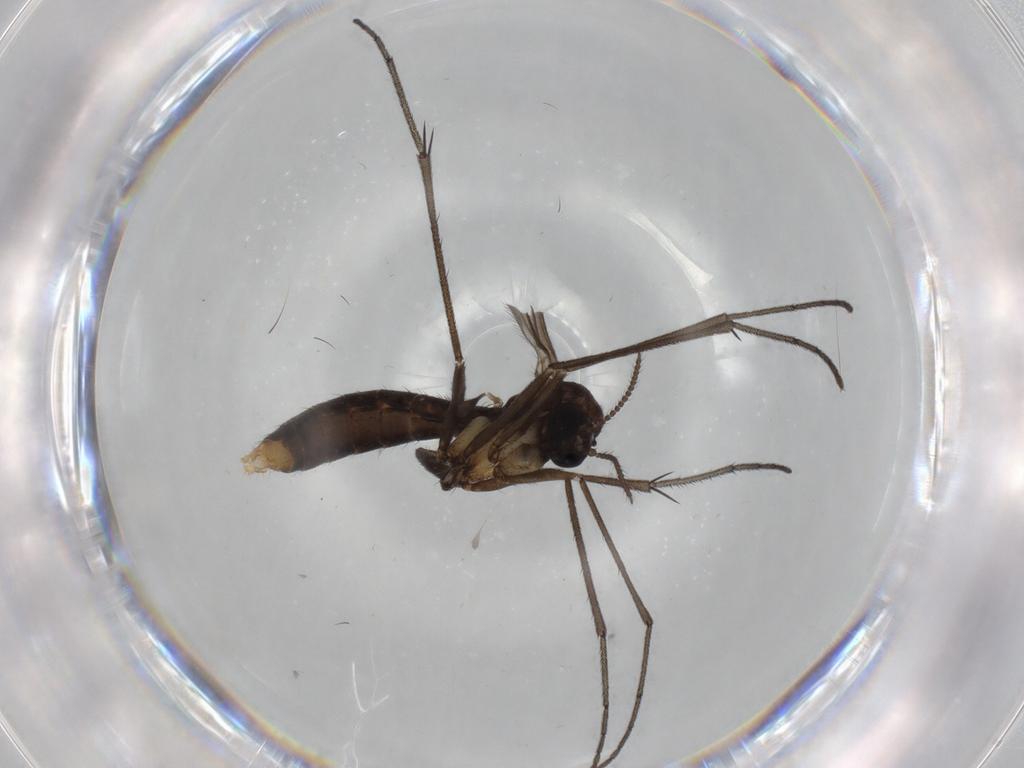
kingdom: Animalia
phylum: Arthropoda
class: Insecta
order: Diptera
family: Cecidomyiidae
